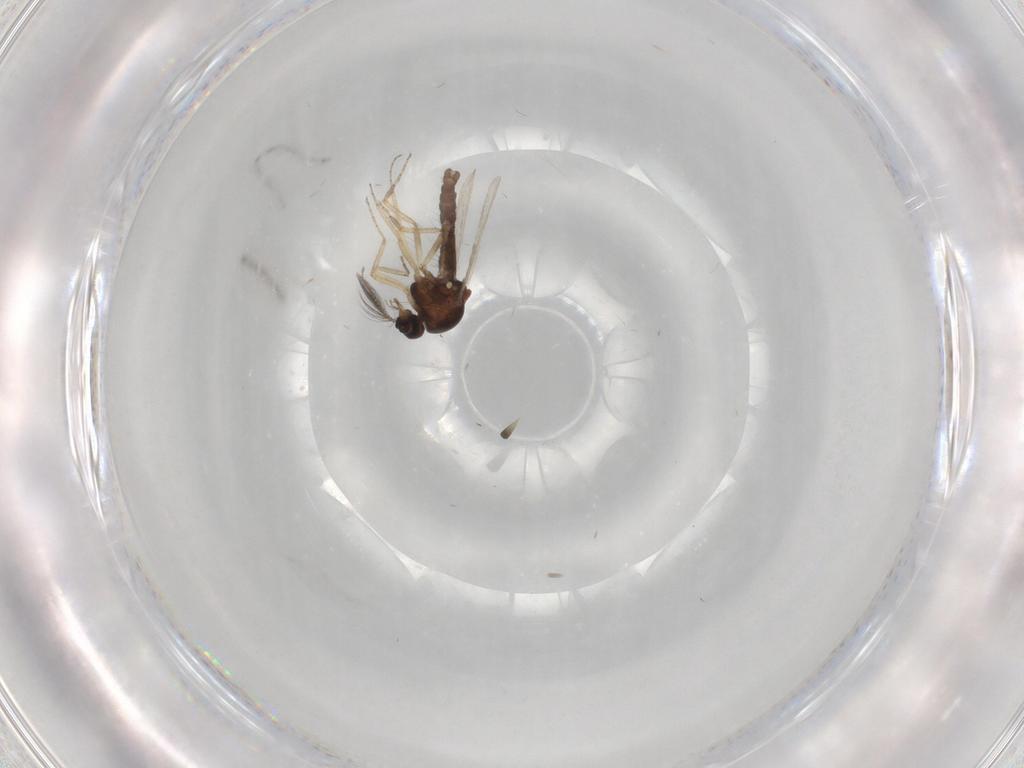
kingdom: Animalia
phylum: Arthropoda
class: Insecta
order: Diptera
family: Ceratopogonidae
